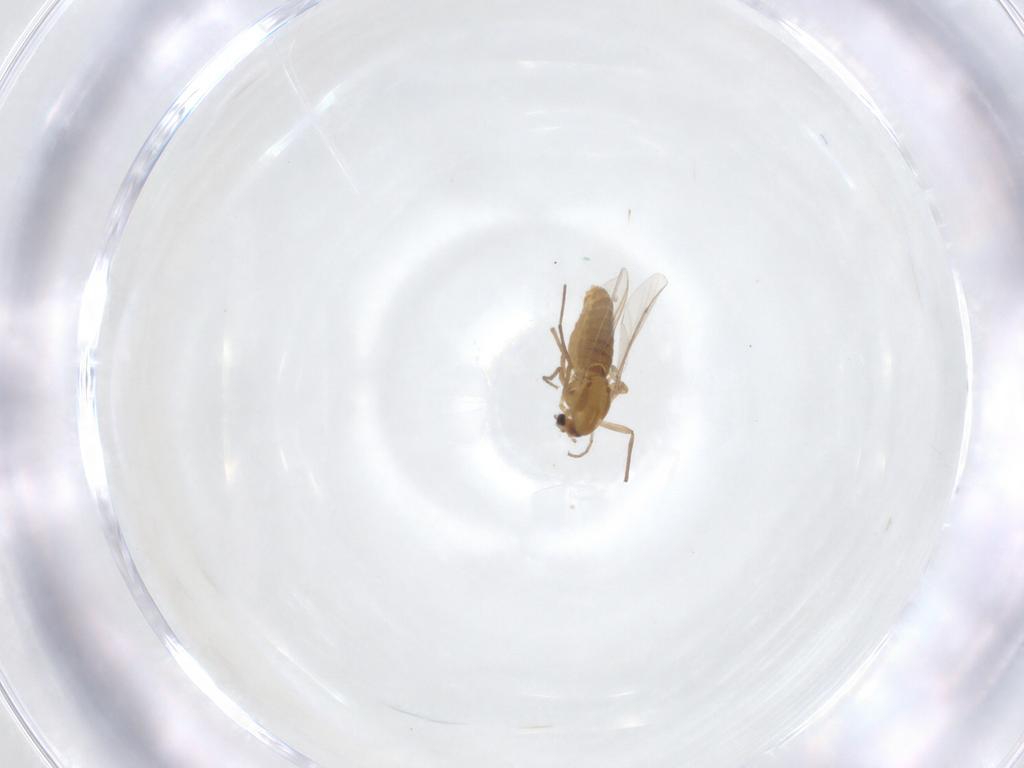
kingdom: Animalia
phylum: Arthropoda
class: Insecta
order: Diptera
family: Chironomidae
